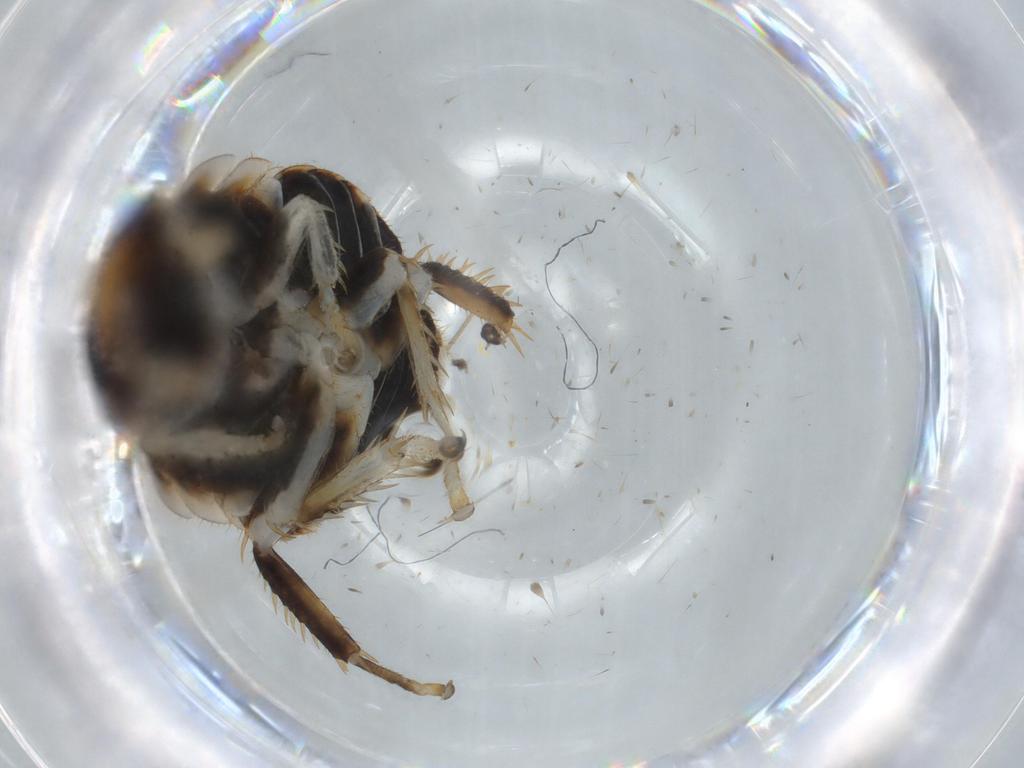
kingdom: Animalia
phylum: Arthropoda
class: Insecta
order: Blattodea
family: Ectobiidae
